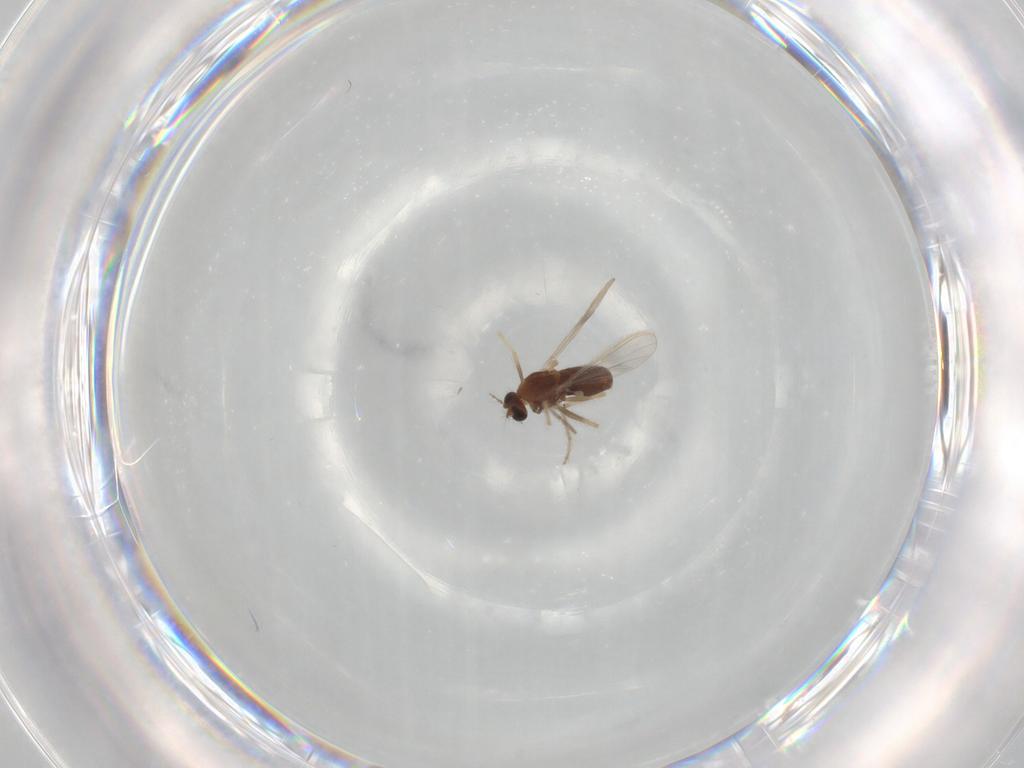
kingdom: Animalia
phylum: Arthropoda
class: Insecta
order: Diptera
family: Chironomidae
